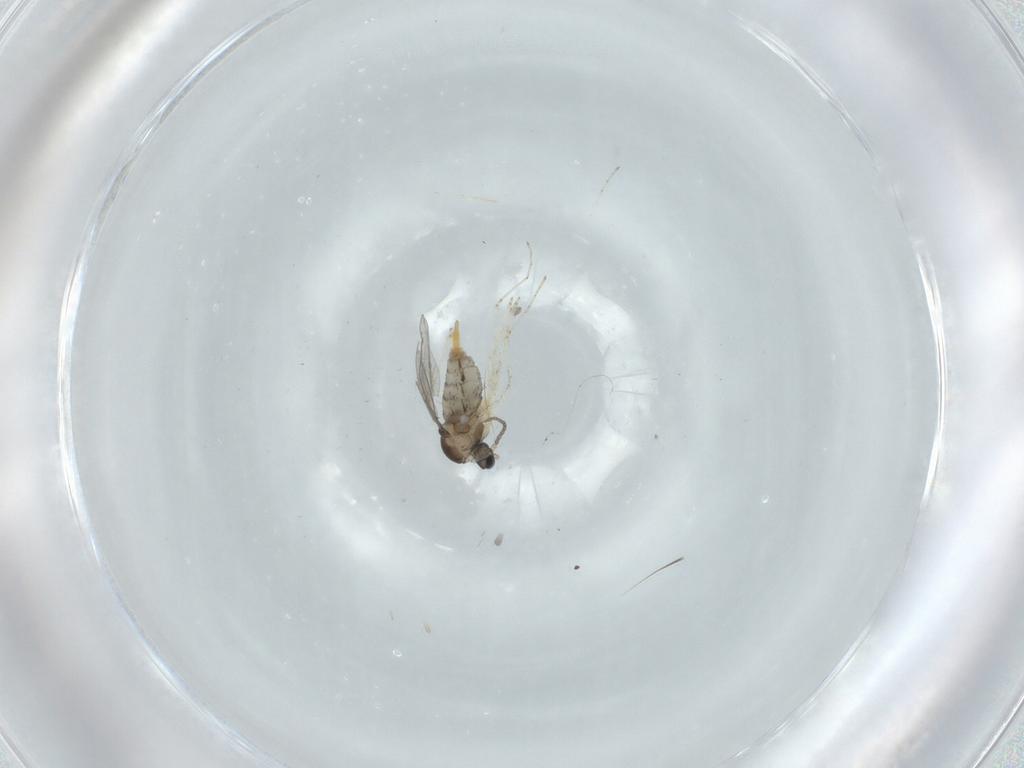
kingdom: Animalia
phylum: Arthropoda
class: Insecta
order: Diptera
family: Cecidomyiidae
